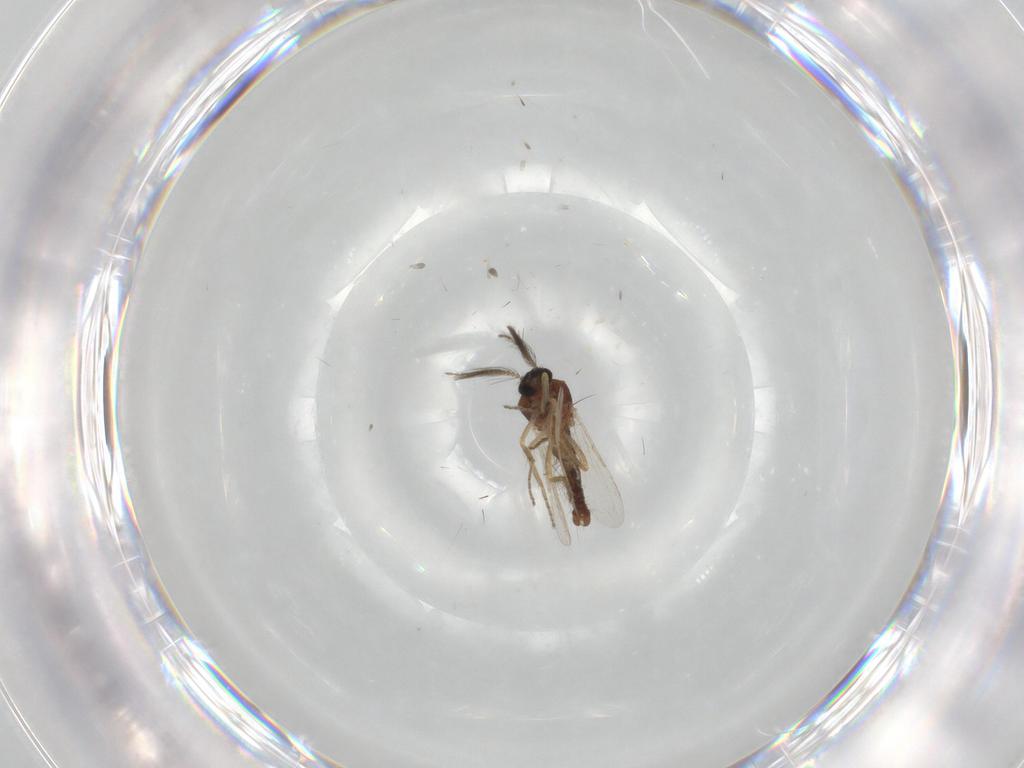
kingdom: Animalia
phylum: Arthropoda
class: Insecta
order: Diptera
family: Ceratopogonidae
